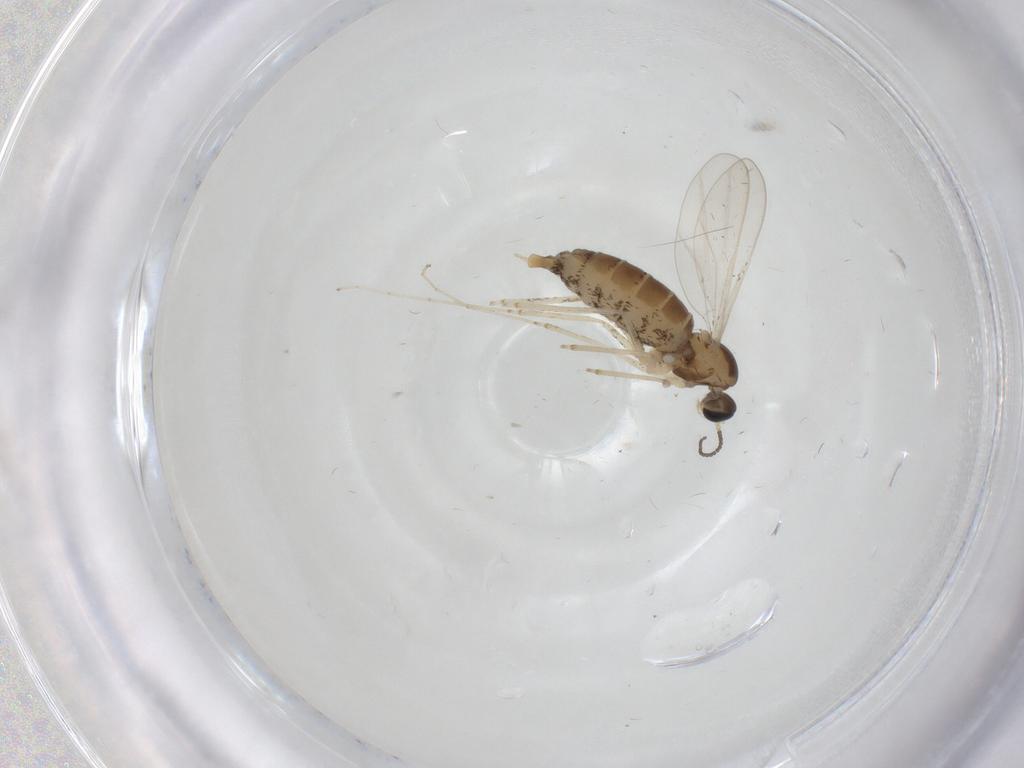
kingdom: Animalia
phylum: Arthropoda
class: Insecta
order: Diptera
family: Cecidomyiidae
